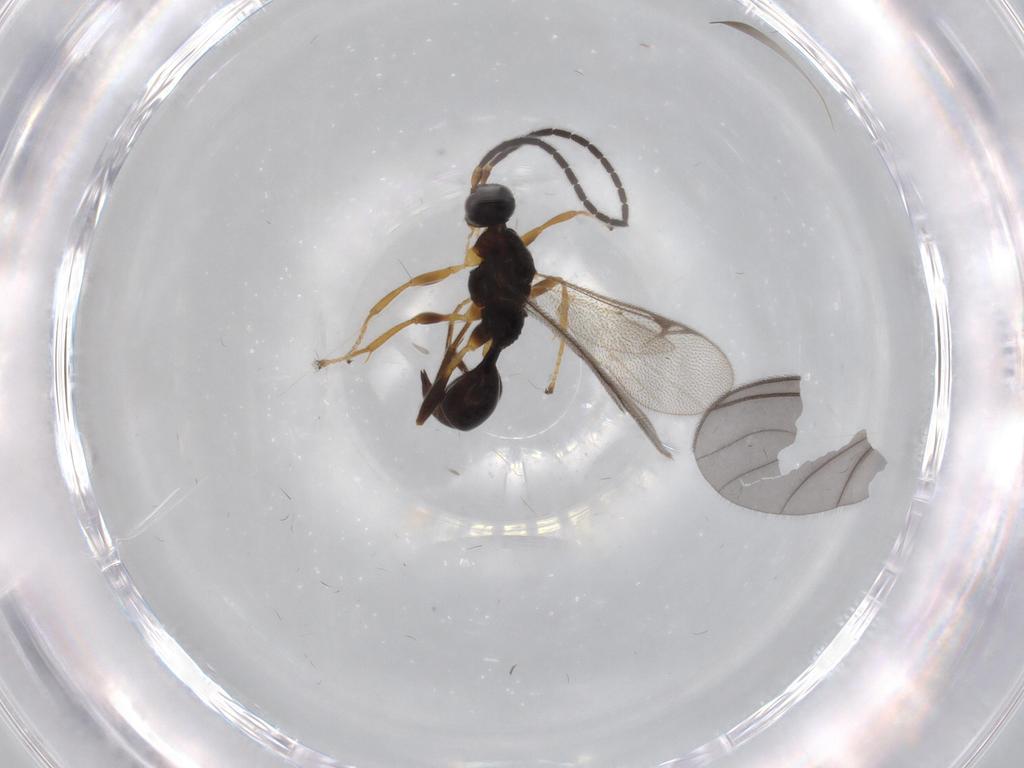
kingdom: Animalia
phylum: Arthropoda
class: Insecta
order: Hymenoptera
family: Proctotrupidae
